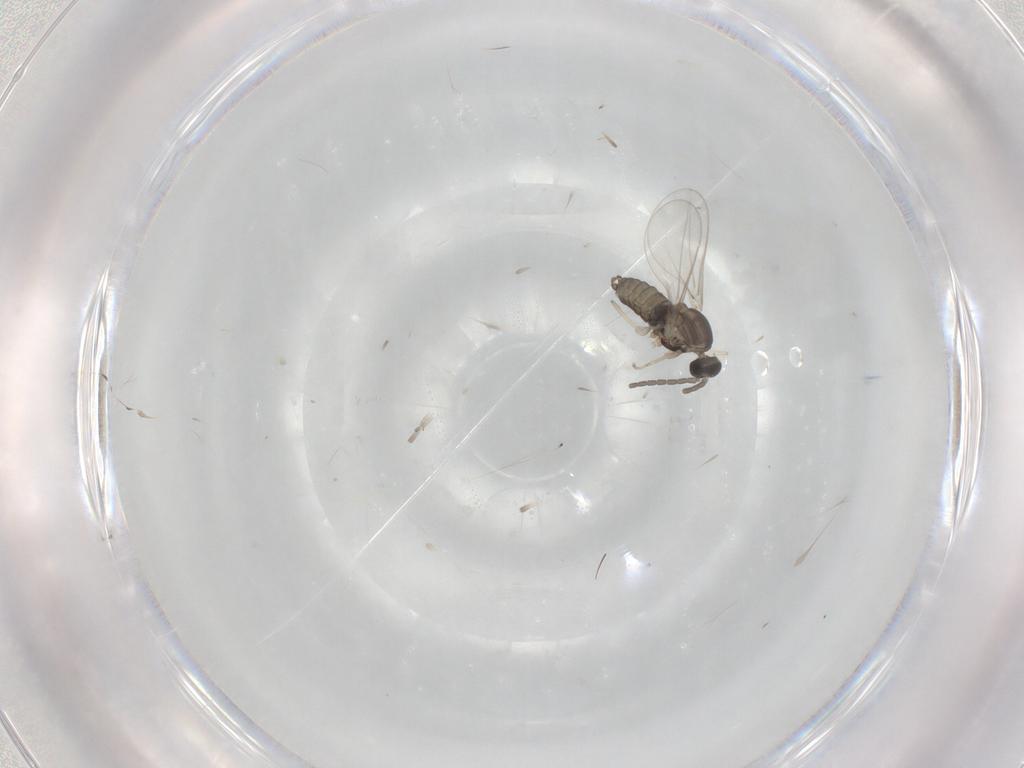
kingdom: Animalia
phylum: Arthropoda
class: Insecta
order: Diptera
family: Cecidomyiidae
